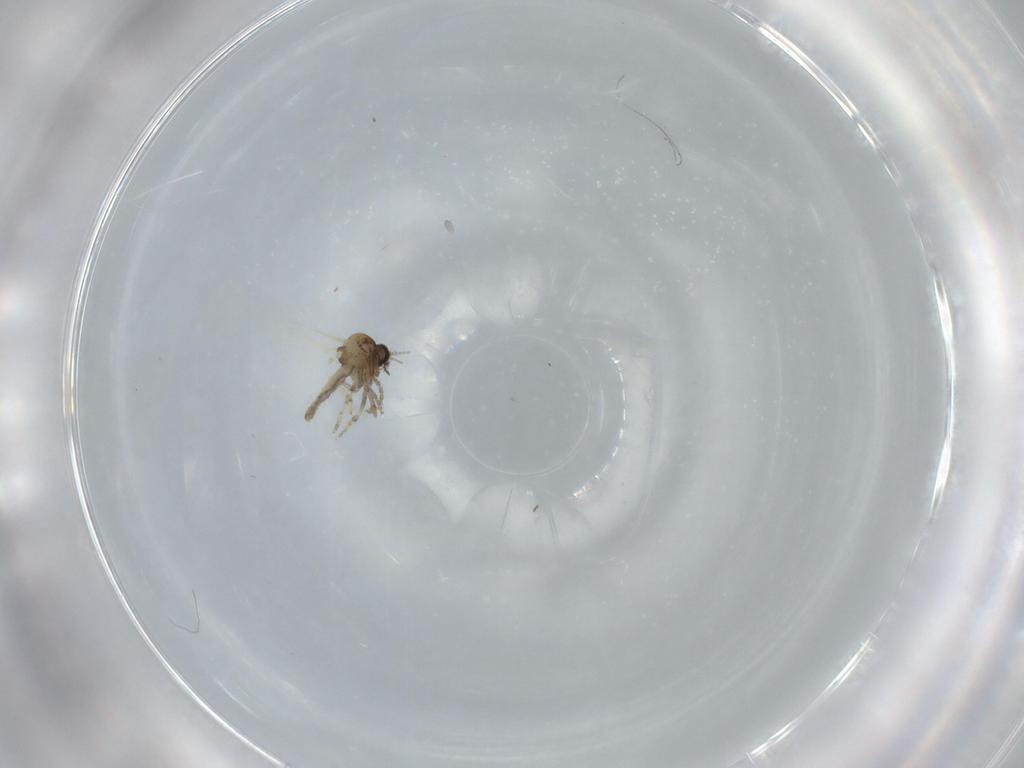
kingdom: Animalia
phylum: Arthropoda
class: Insecta
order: Diptera
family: Ceratopogonidae
